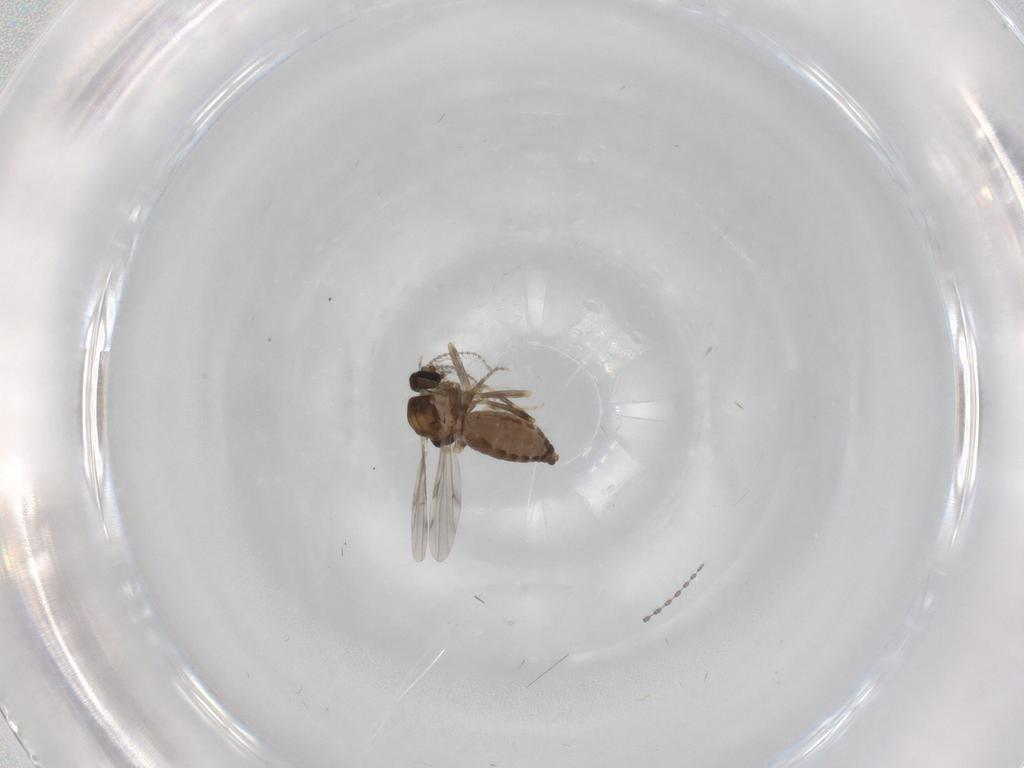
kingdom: Animalia
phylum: Arthropoda
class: Insecta
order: Diptera
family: Ceratopogonidae
